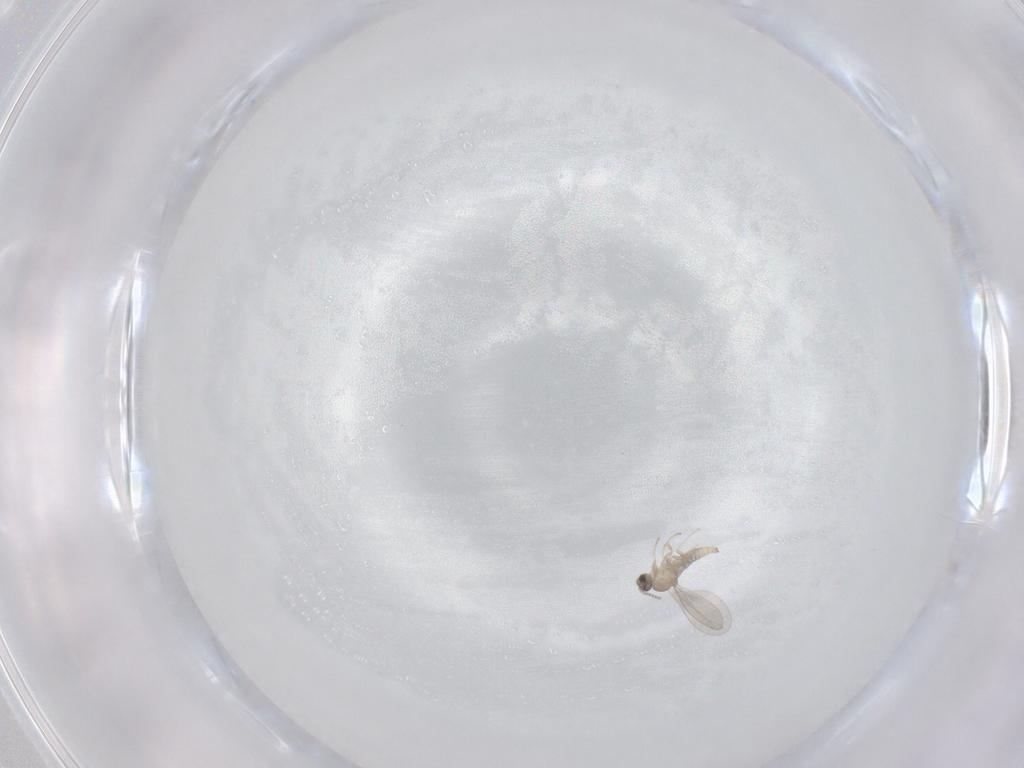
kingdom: Animalia
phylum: Arthropoda
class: Insecta
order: Diptera
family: Cecidomyiidae
